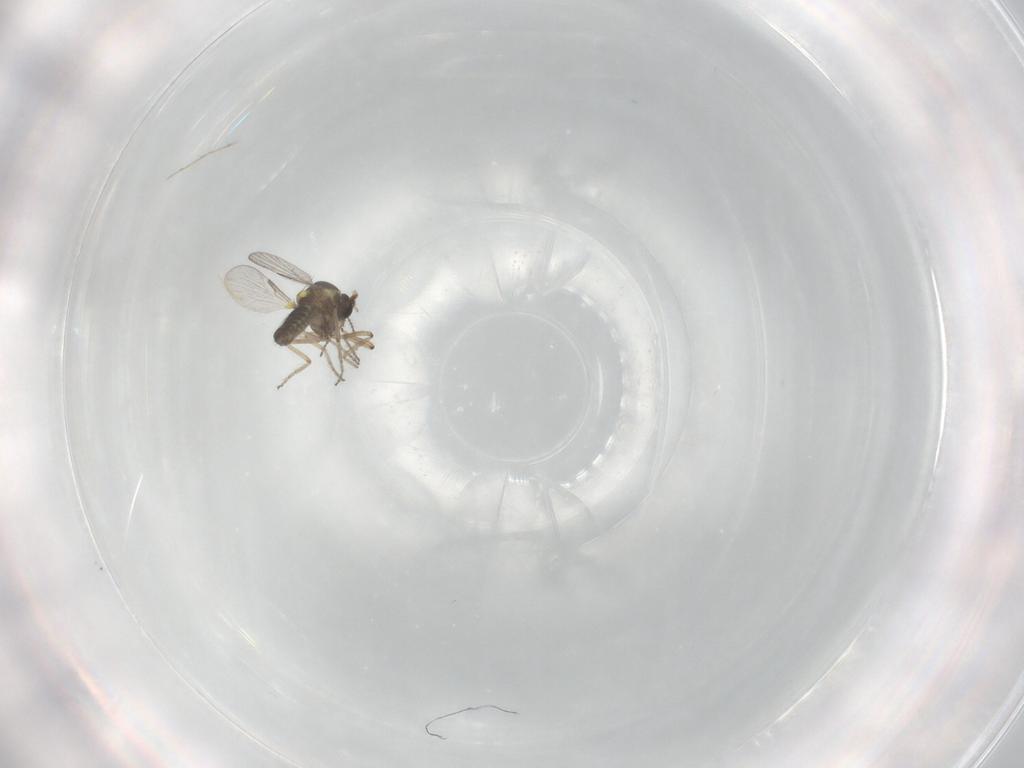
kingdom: Animalia
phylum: Arthropoda
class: Insecta
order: Diptera
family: Ceratopogonidae
